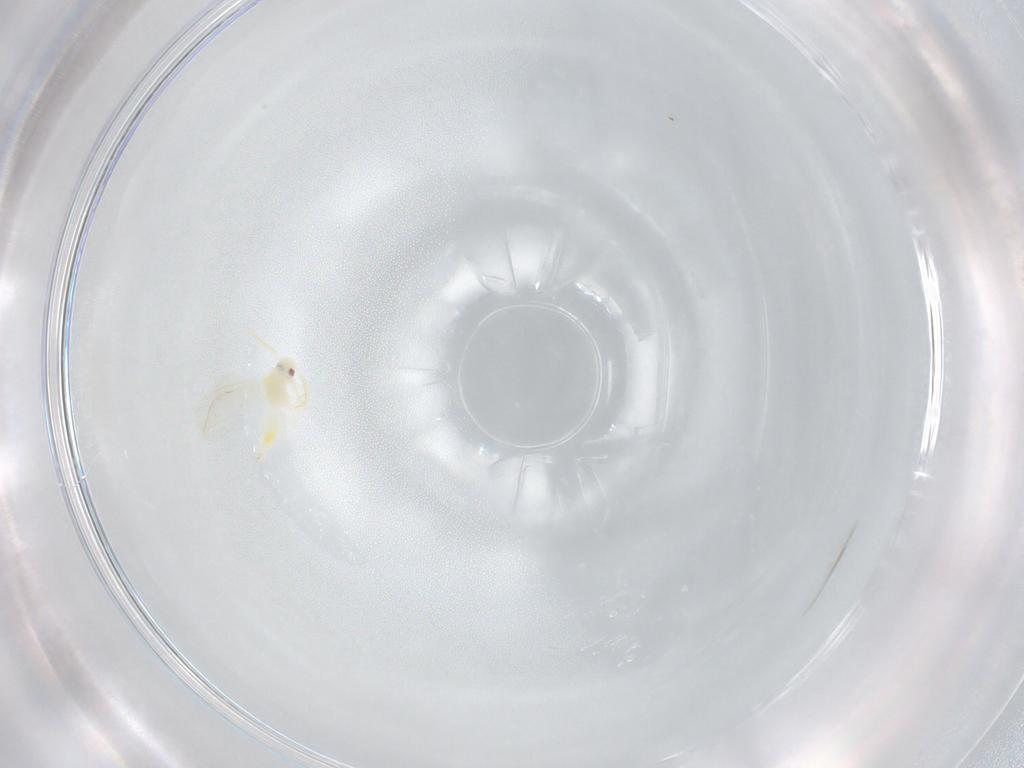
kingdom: Animalia
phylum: Arthropoda
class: Insecta
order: Hemiptera
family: Aleyrodidae
